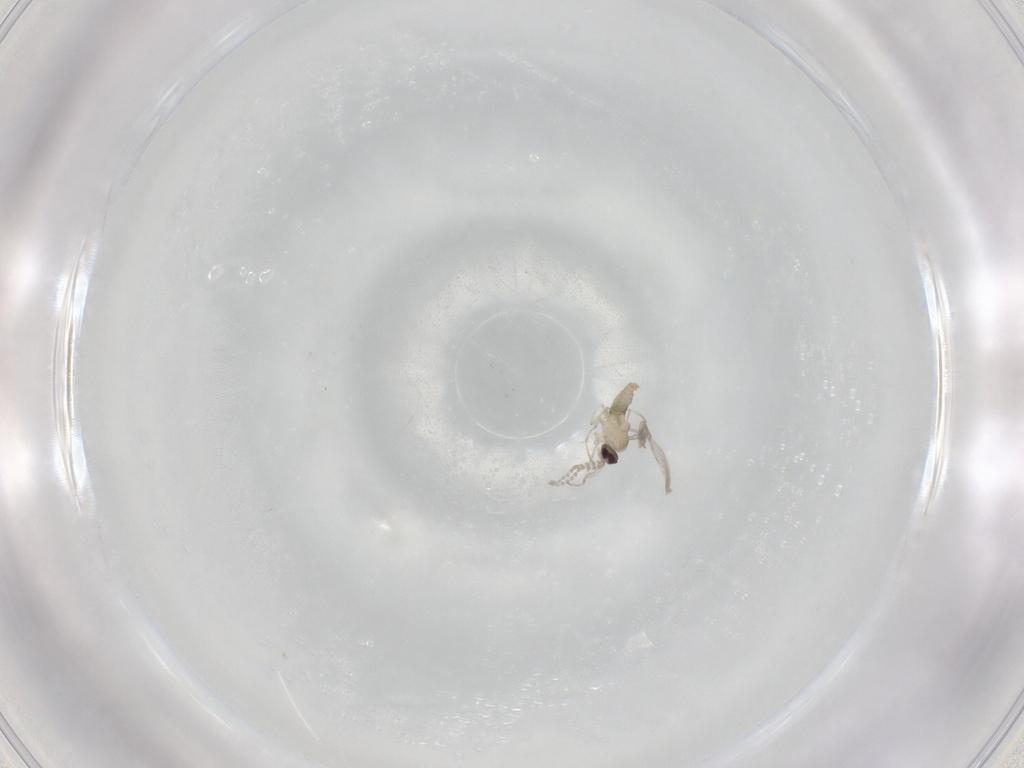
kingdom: Animalia
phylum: Arthropoda
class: Insecta
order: Diptera
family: Cecidomyiidae
